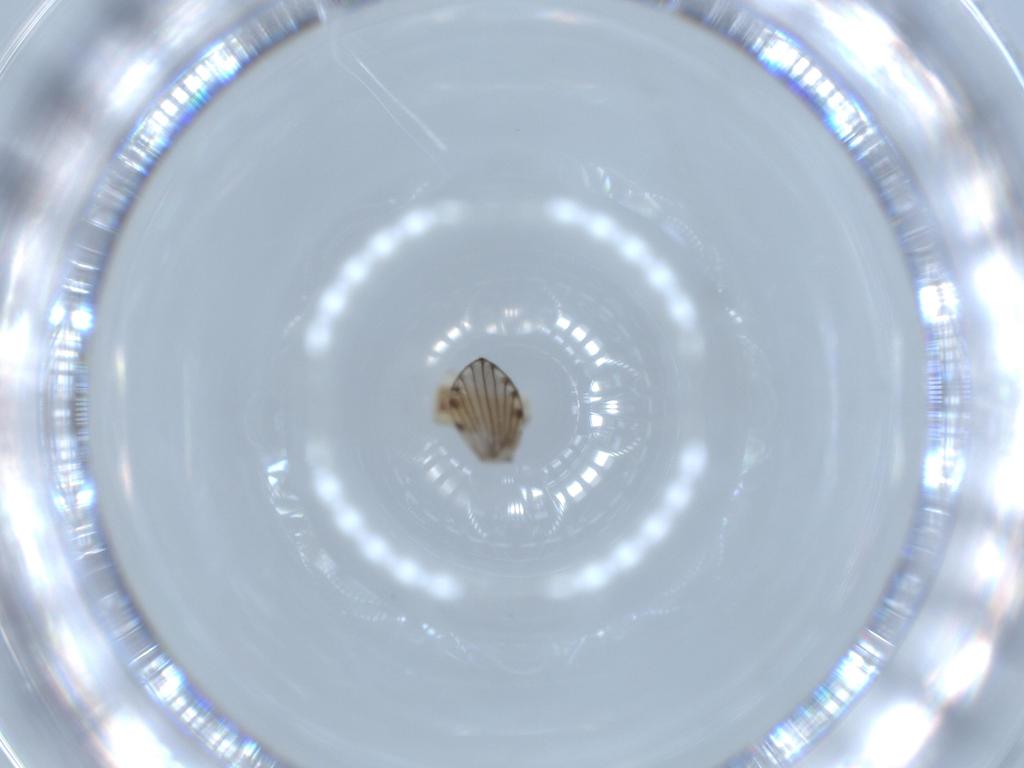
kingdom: Animalia
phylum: Arthropoda
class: Insecta
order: Diptera
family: Psychodidae
